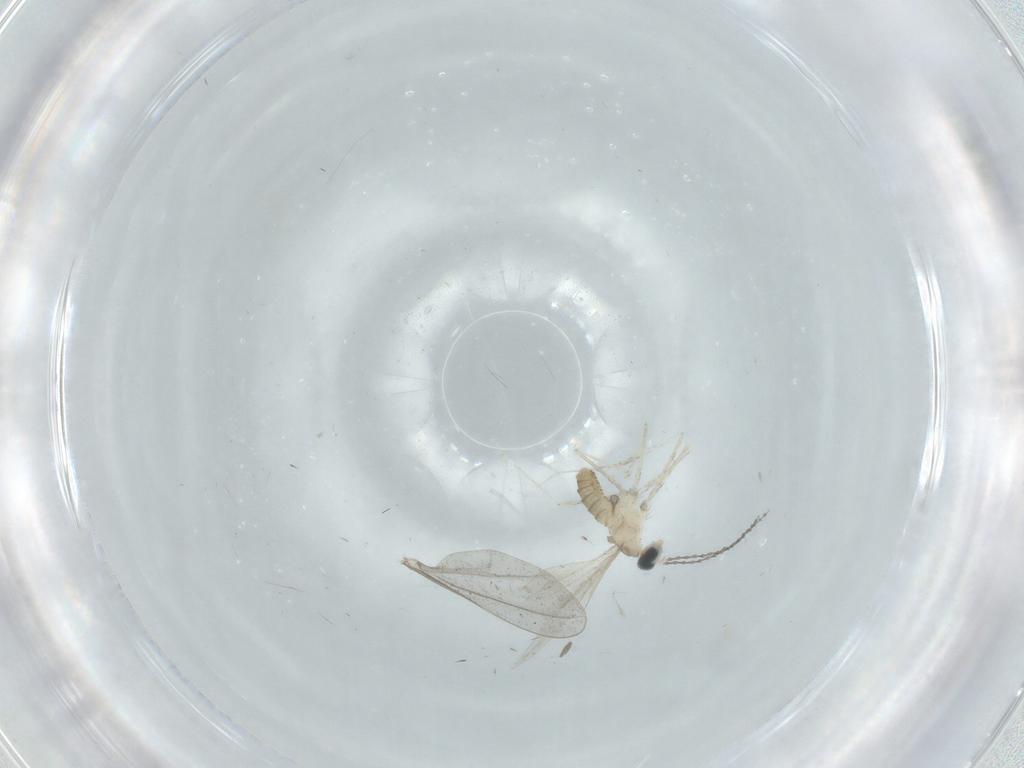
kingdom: Animalia
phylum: Arthropoda
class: Insecta
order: Diptera
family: Cecidomyiidae
